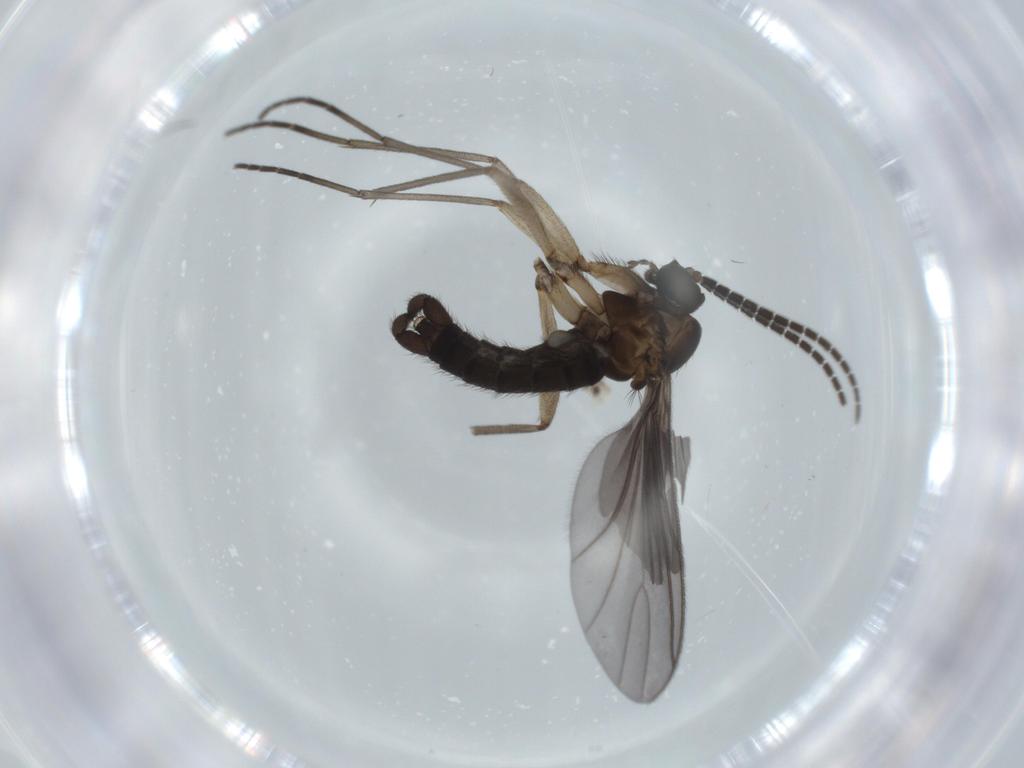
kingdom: Animalia
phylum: Arthropoda
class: Insecta
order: Diptera
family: Sciaridae
